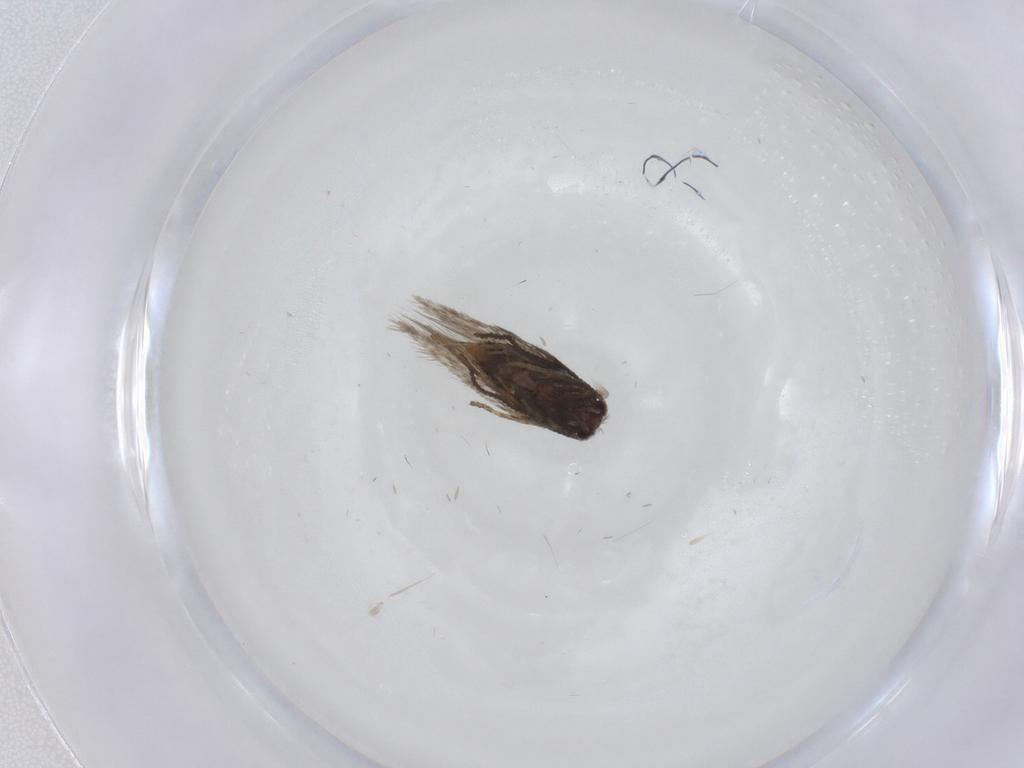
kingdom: Animalia
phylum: Arthropoda
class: Insecta
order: Lepidoptera
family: Nepticulidae
